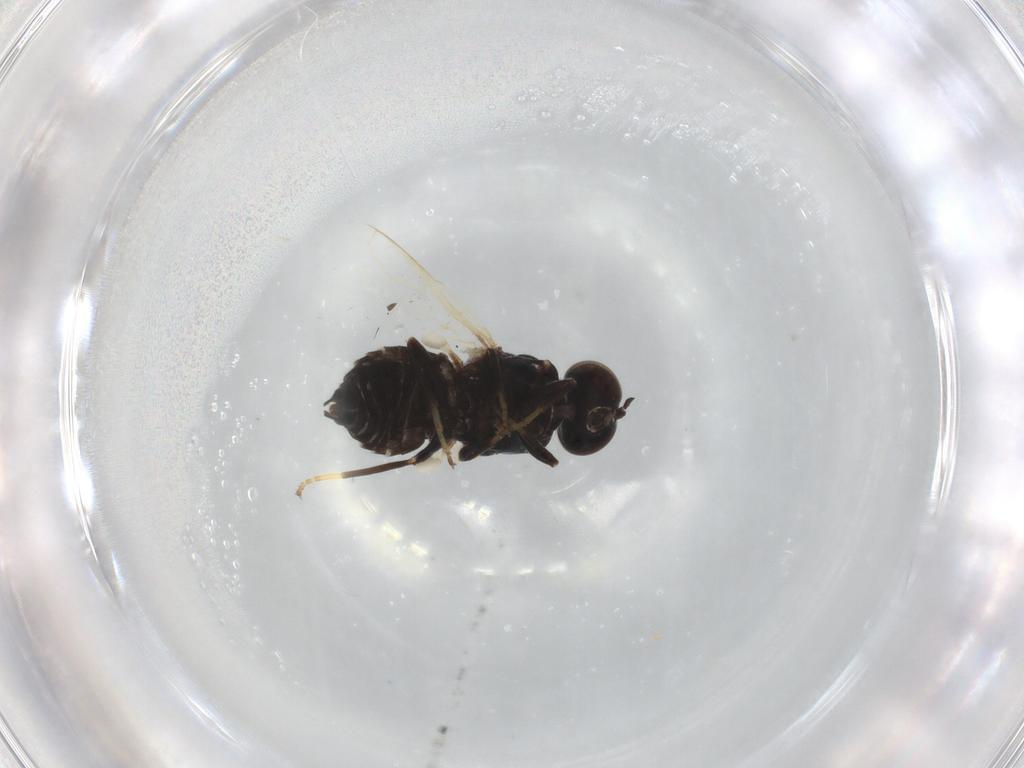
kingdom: Animalia
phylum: Arthropoda
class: Insecta
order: Diptera
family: Scenopinidae
